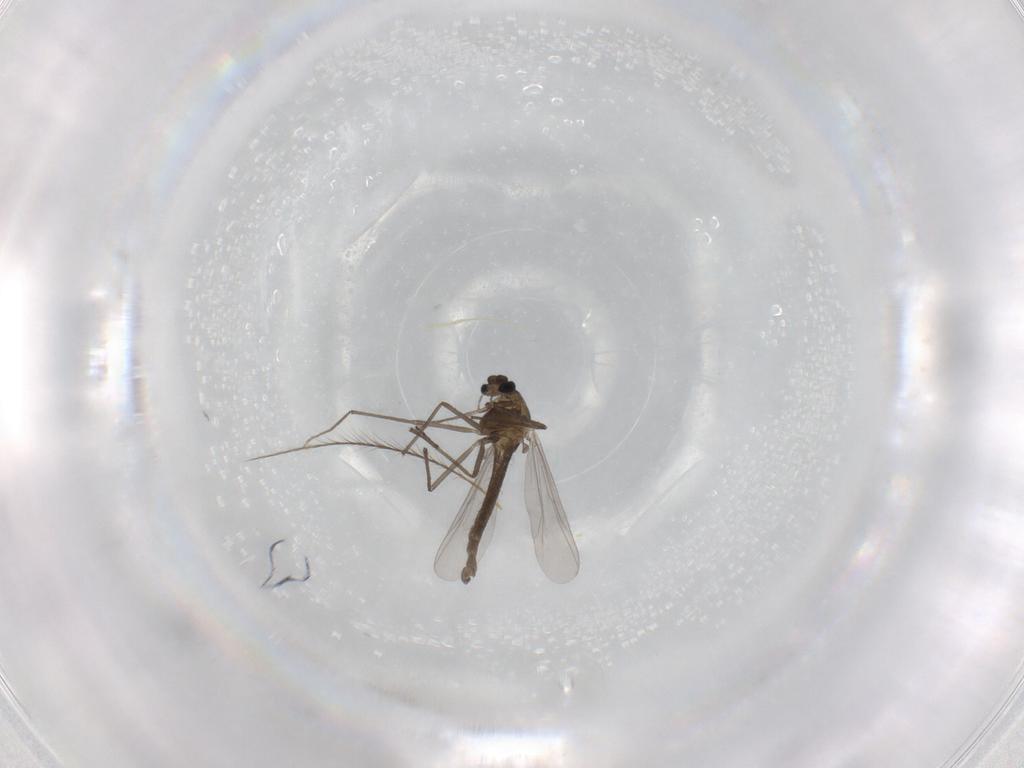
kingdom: Animalia
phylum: Arthropoda
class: Insecta
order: Diptera
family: Chironomidae
